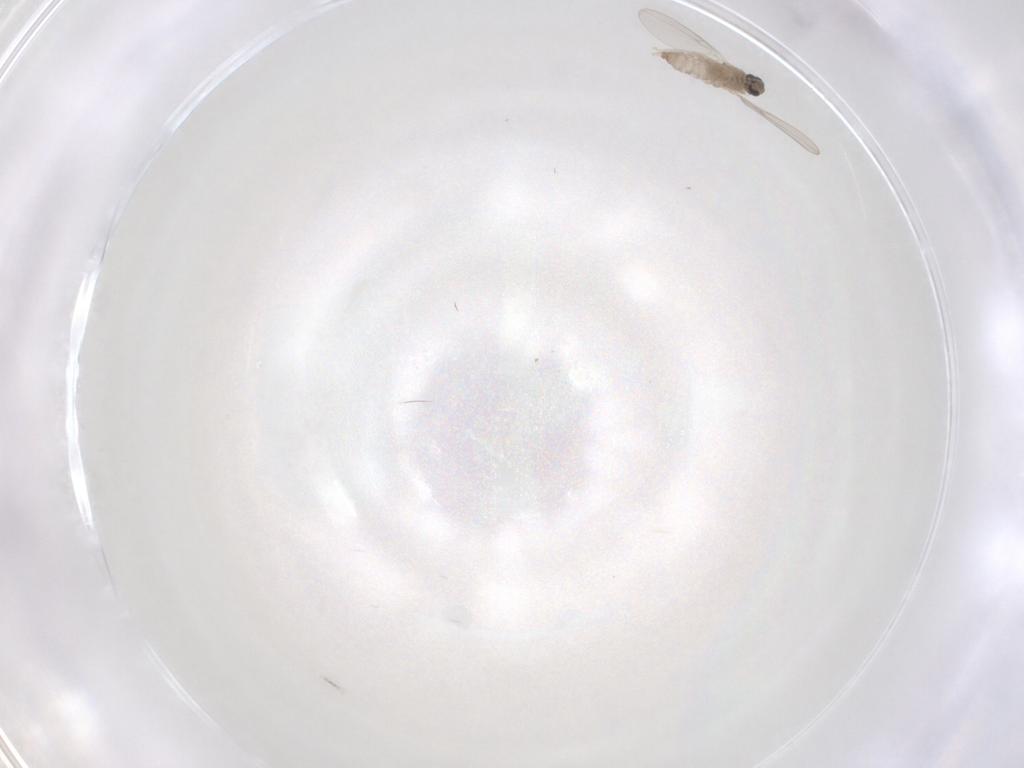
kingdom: Animalia
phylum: Arthropoda
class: Insecta
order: Diptera
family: Cecidomyiidae
